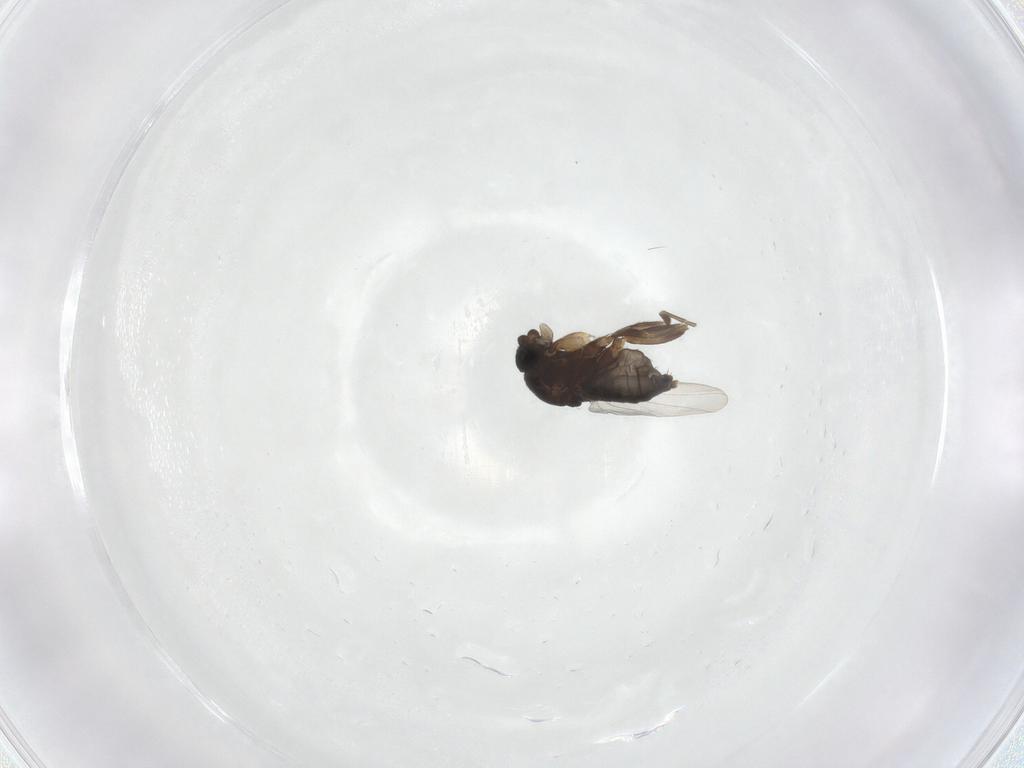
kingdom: Animalia
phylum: Arthropoda
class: Insecta
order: Diptera
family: Phoridae
